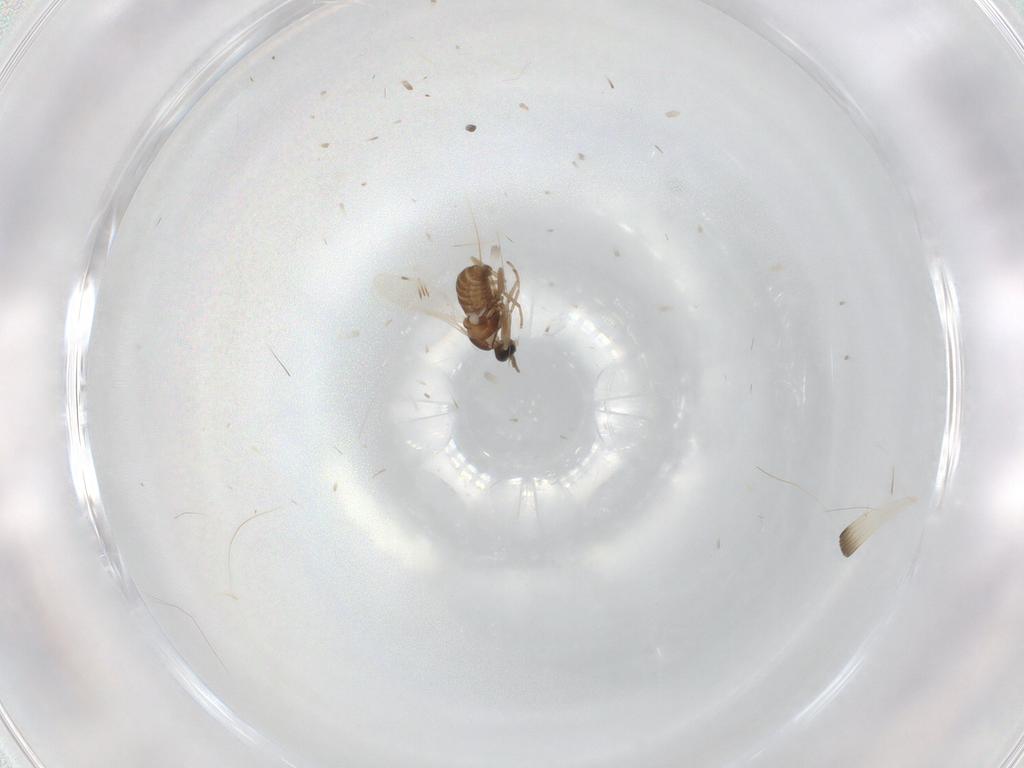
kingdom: Animalia
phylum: Arthropoda
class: Insecta
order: Diptera
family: Cecidomyiidae
